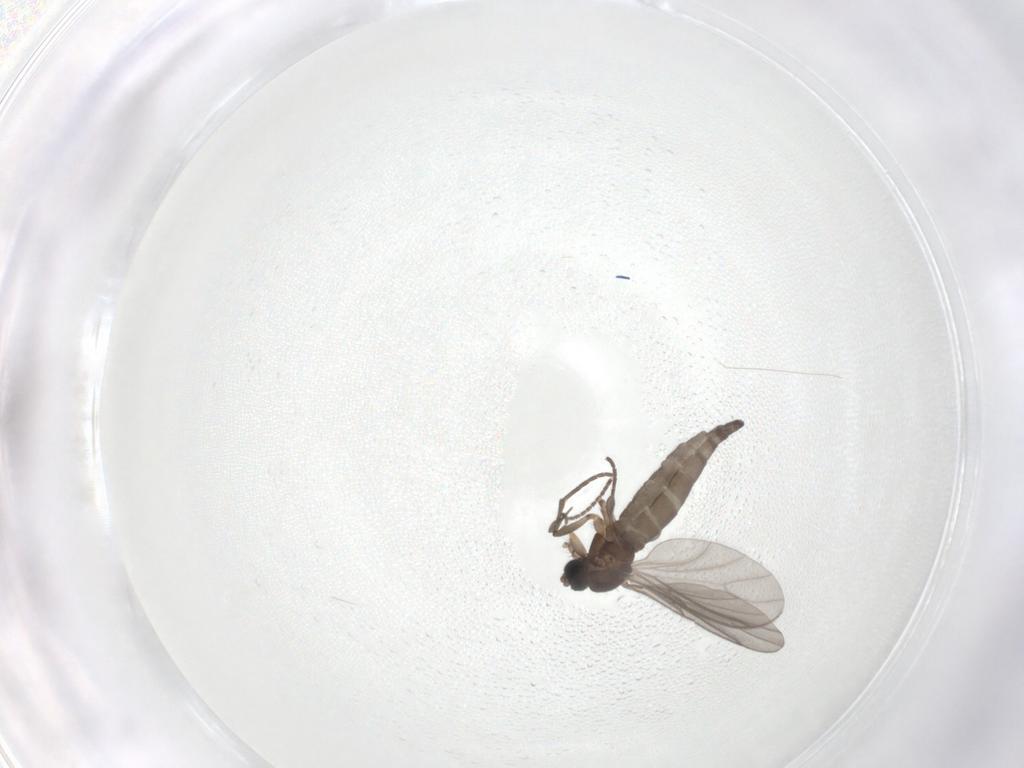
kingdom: Animalia
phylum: Arthropoda
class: Insecta
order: Diptera
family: Sciaridae
